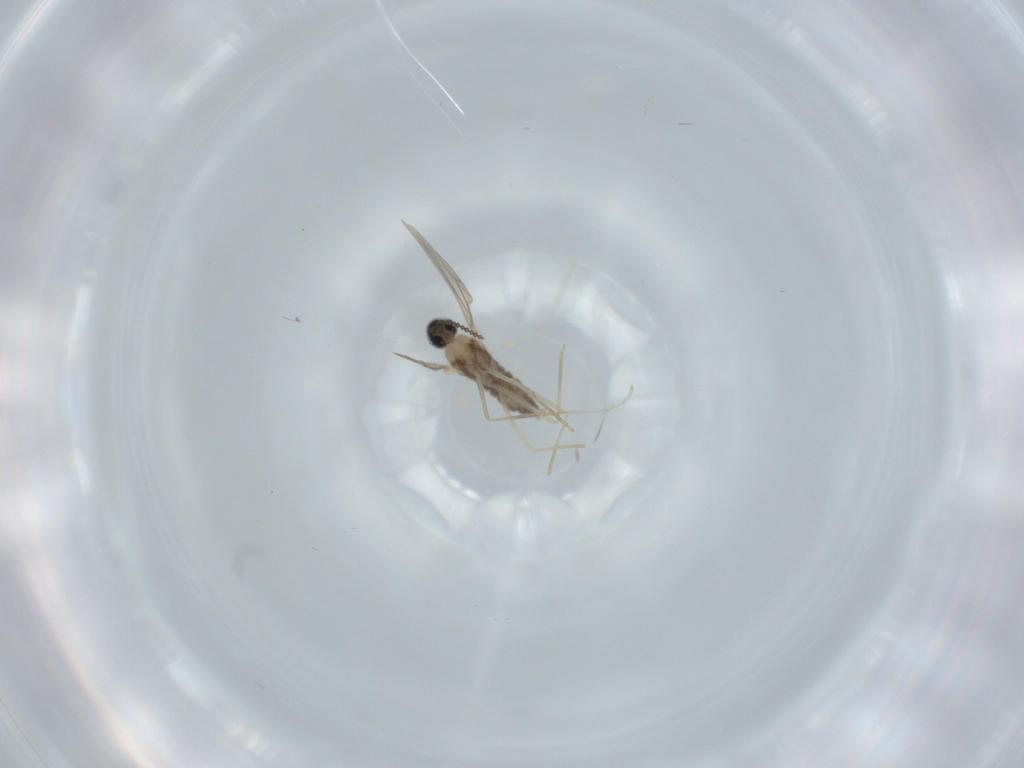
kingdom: Animalia
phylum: Arthropoda
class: Insecta
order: Diptera
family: Cecidomyiidae
